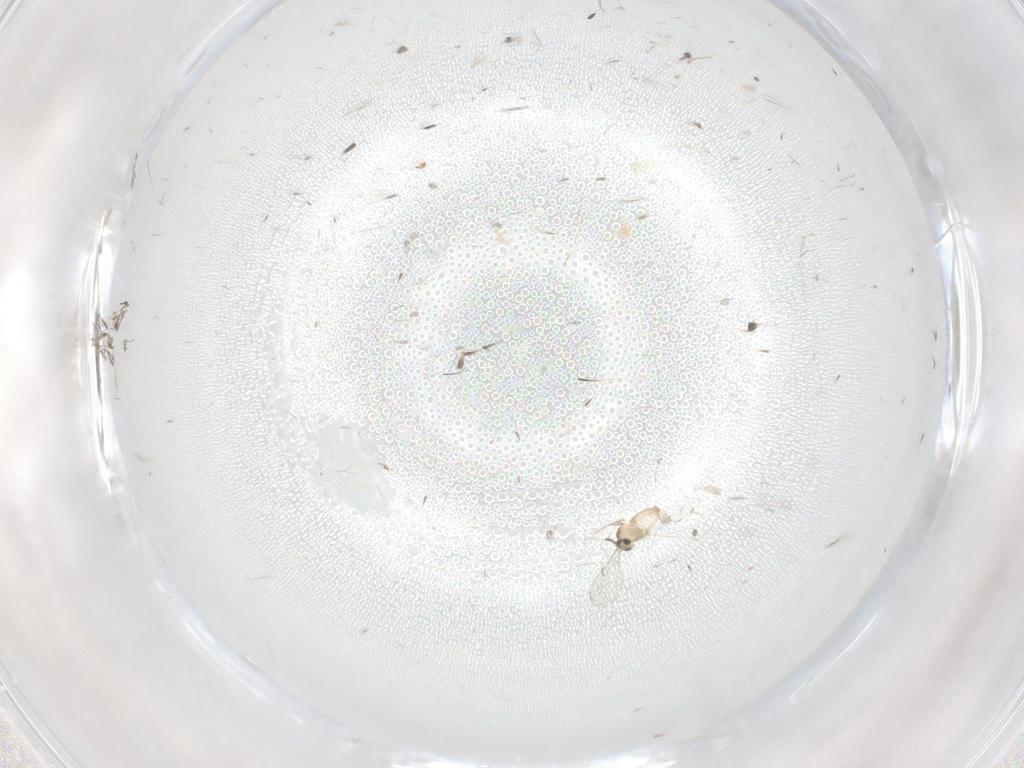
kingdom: Animalia
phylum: Arthropoda
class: Insecta
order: Diptera
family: Cecidomyiidae
